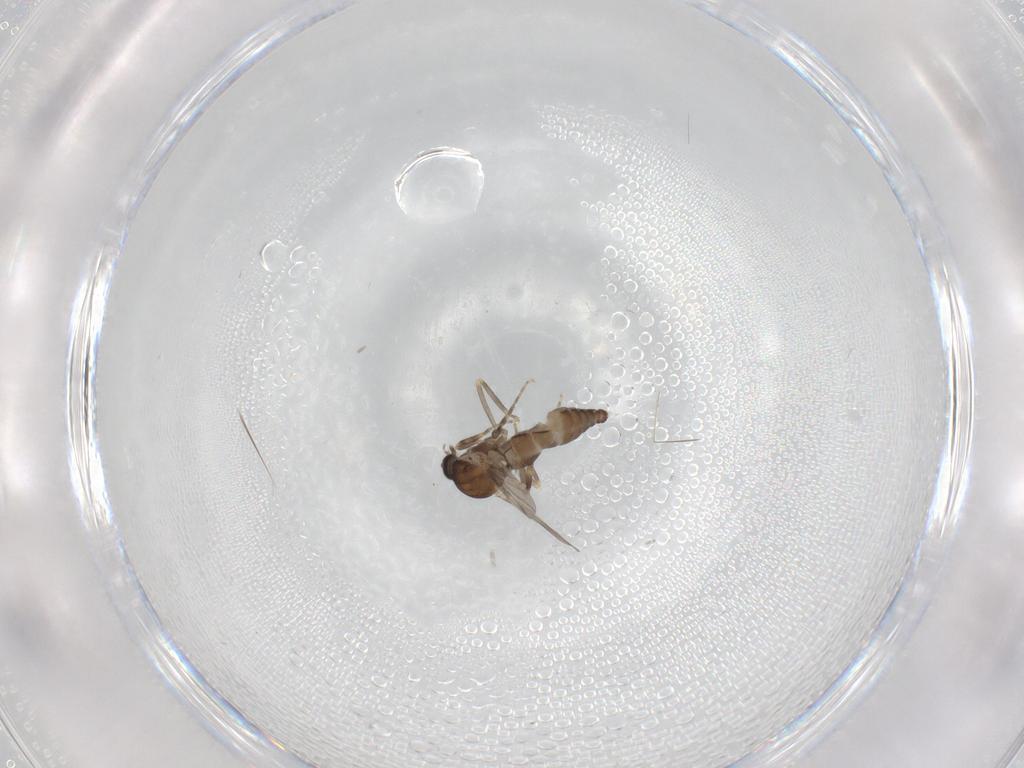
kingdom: Animalia
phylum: Arthropoda
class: Insecta
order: Diptera
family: Ceratopogonidae
